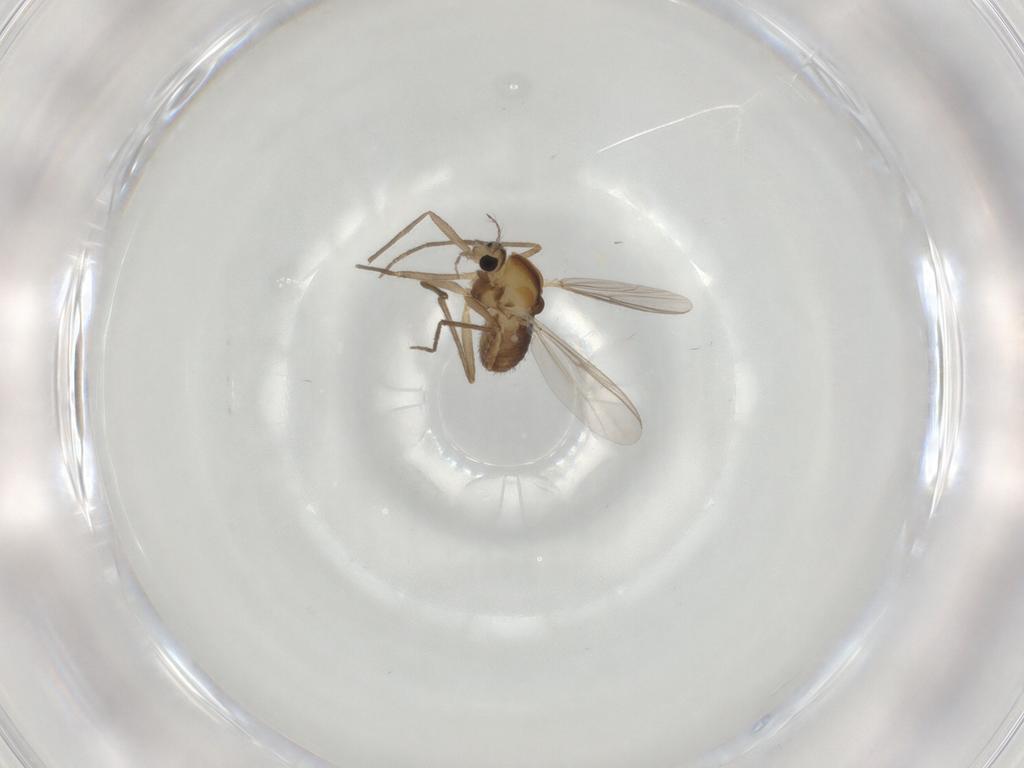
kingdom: Animalia
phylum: Arthropoda
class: Insecta
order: Diptera
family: Chironomidae
